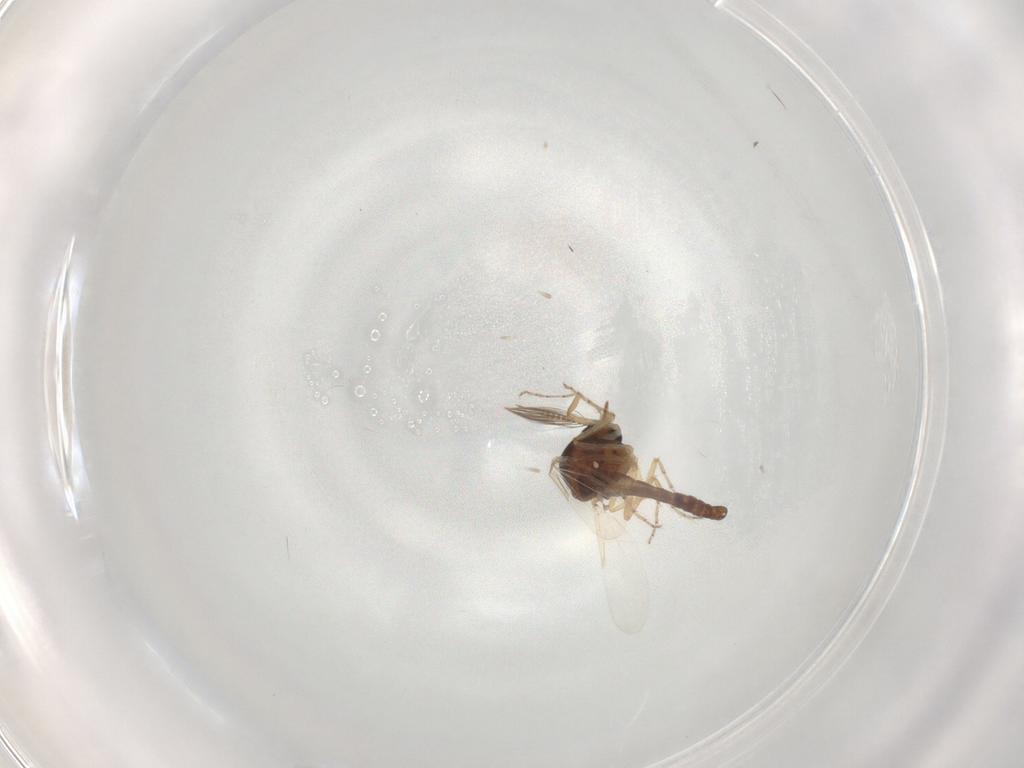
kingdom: Animalia
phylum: Arthropoda
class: Insecta
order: Diptera
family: Ceratopogonidae
